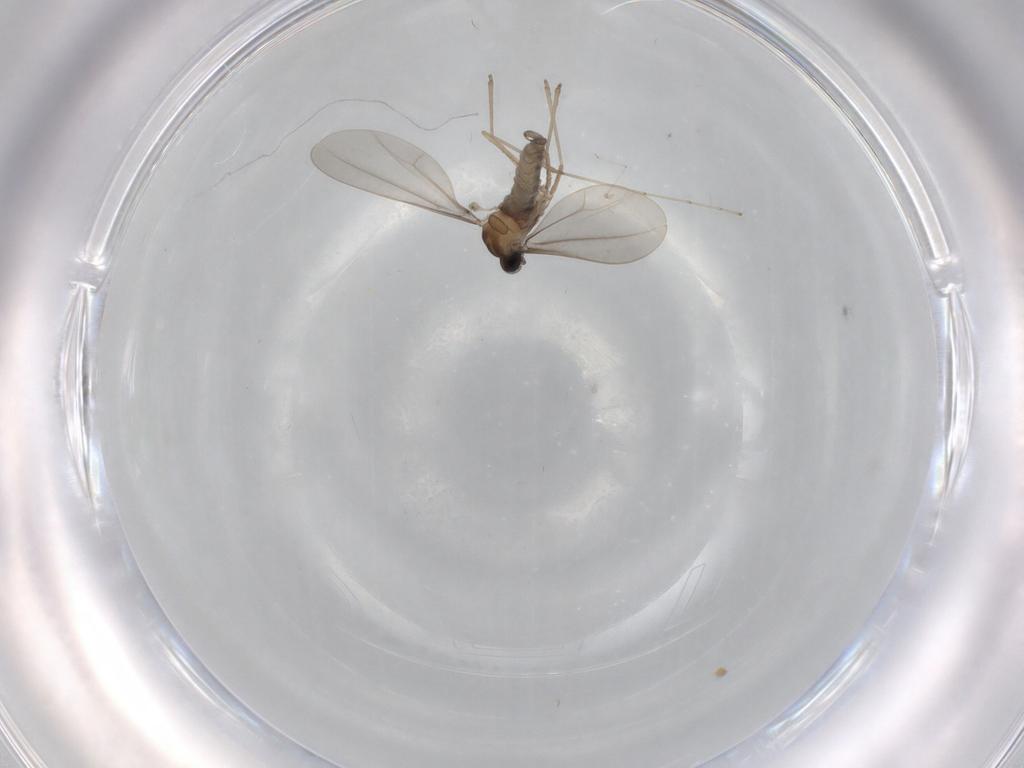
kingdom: Animalia
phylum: Arthropoda
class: Insecta
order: Diptera
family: Cecidomyiidae
